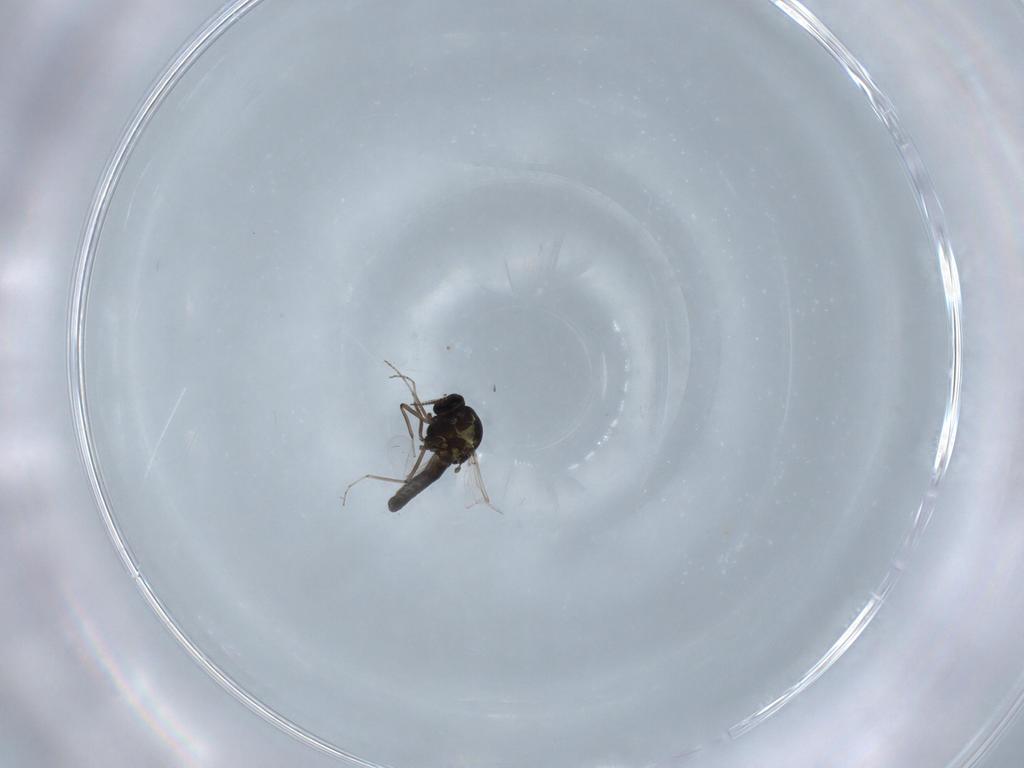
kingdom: Animalia
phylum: Arthropoda
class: Insecta
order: Diptera
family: Ceratopogonidae
